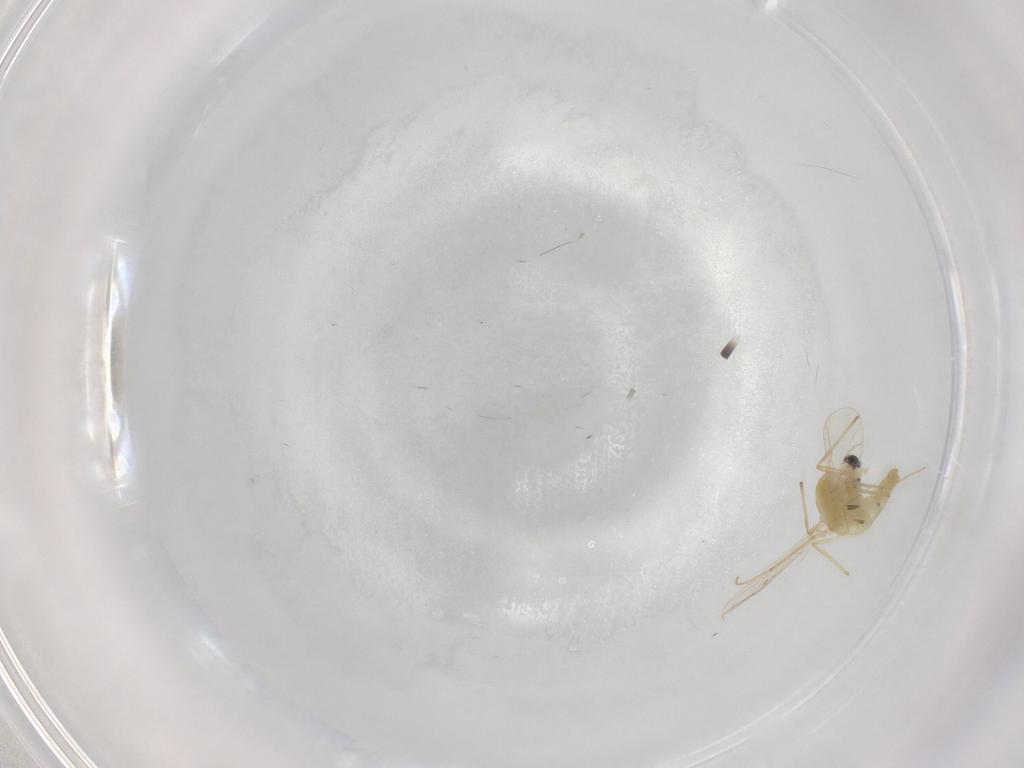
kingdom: Animalia
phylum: Arthropoda
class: Insecta
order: Diptera
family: Chironomidae
